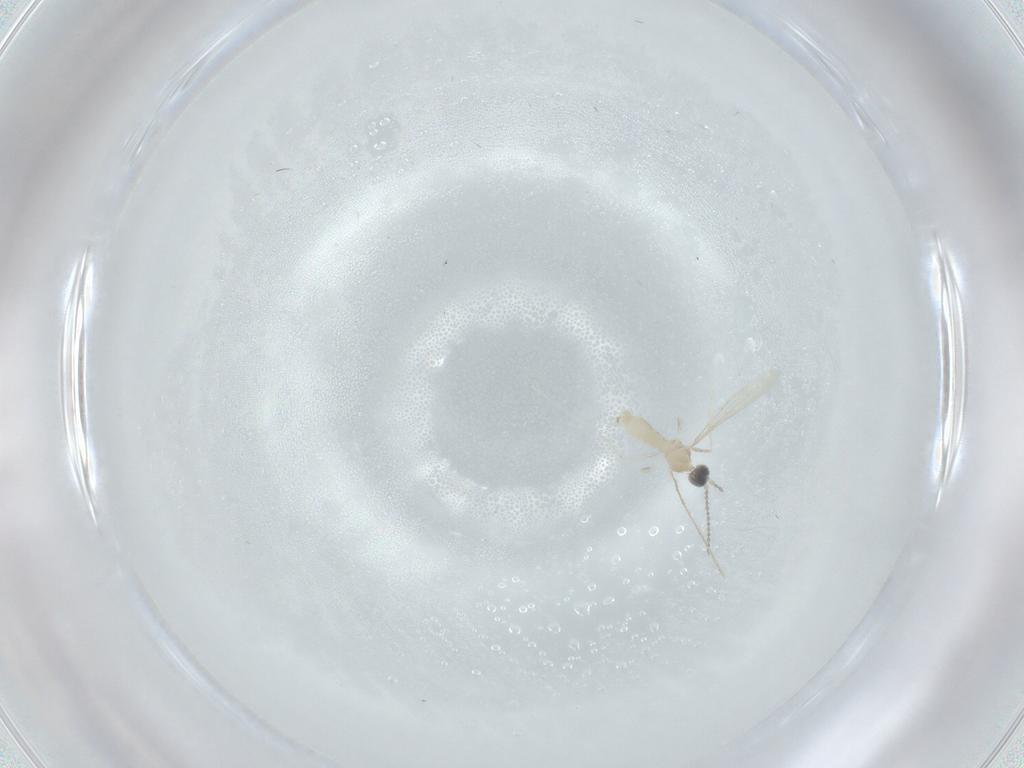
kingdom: Animalia
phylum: Arthropoda
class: Insecta
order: Diptera
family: Cecidomyiidae
